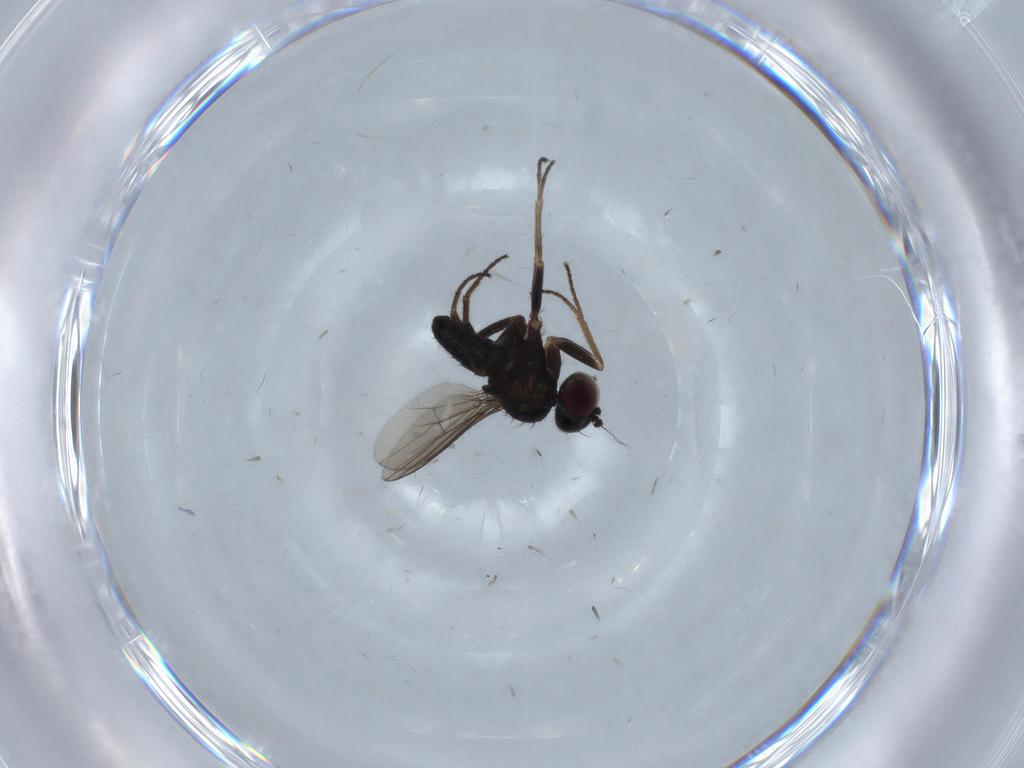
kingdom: Animalia
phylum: Arthropoda
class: Insecta
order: Diptera
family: Dolichopodidae
